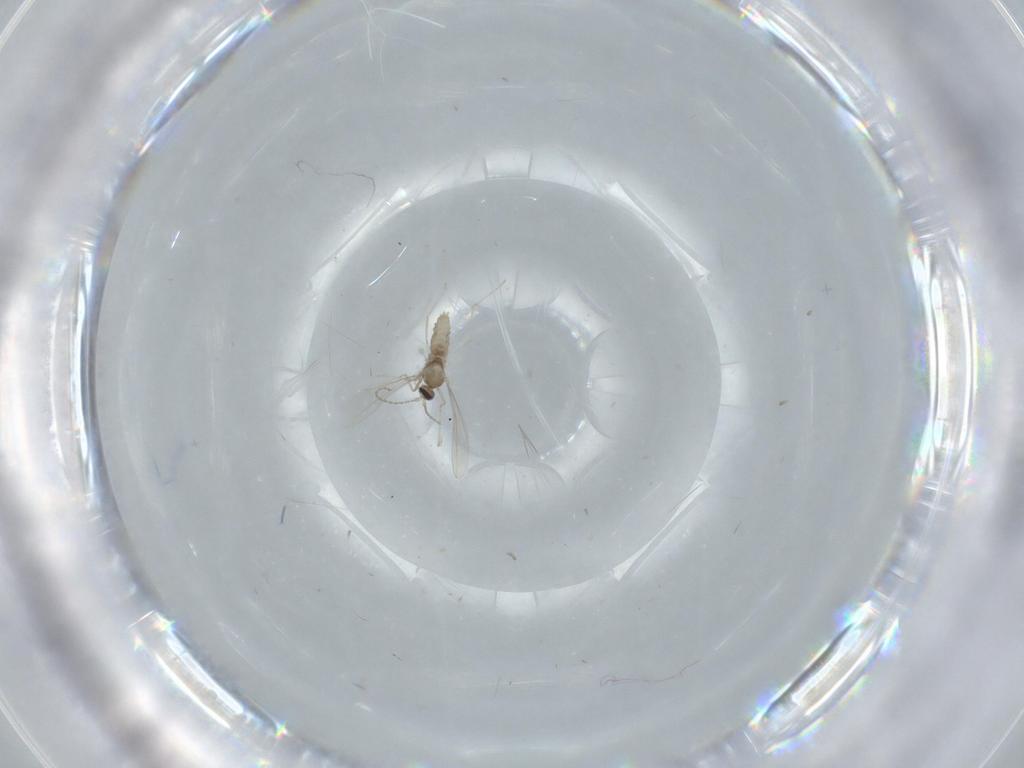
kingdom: Animalia
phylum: Arthropoda
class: Insecta
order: Diptera
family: Cecidomyiidae
